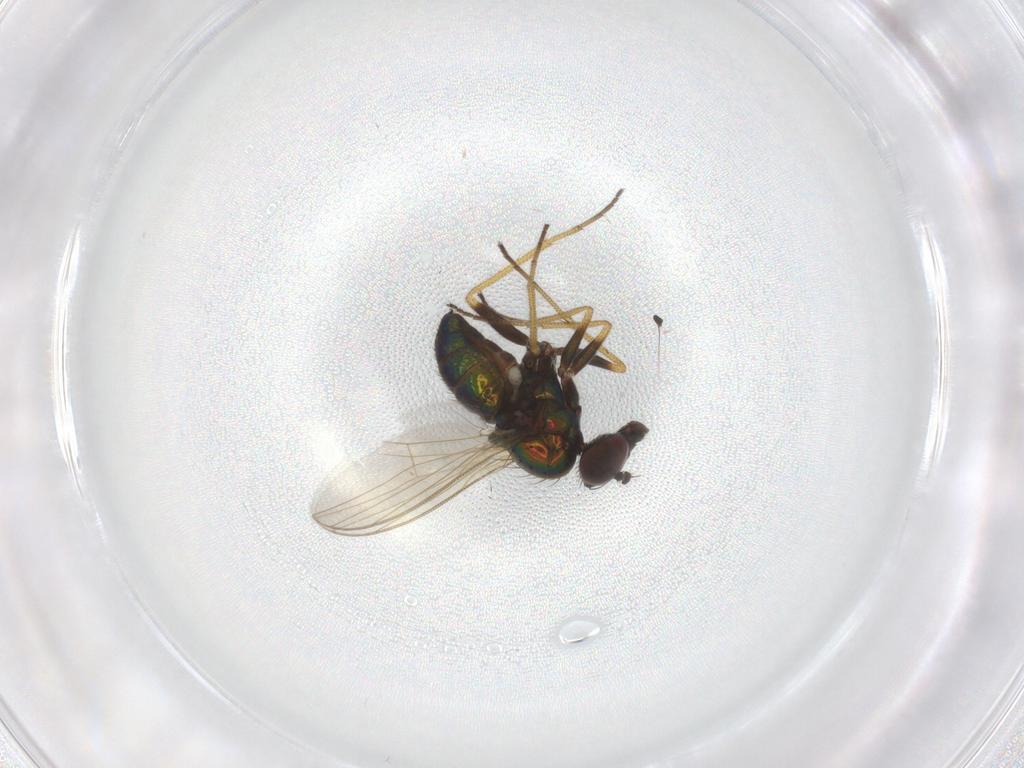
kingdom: Animalia
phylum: Arthropoda
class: Insecta
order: Diptera
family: Dolichopodidae
